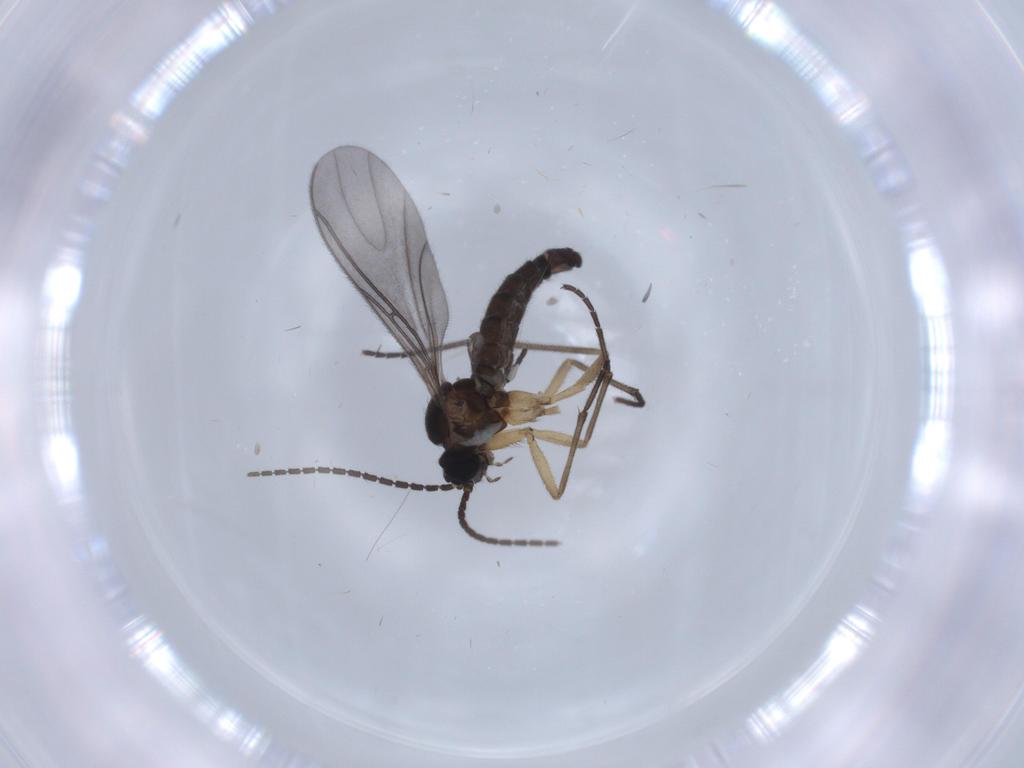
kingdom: Animalia
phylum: Arthropoda
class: Insecta
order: Diptera
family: Sciaridae
